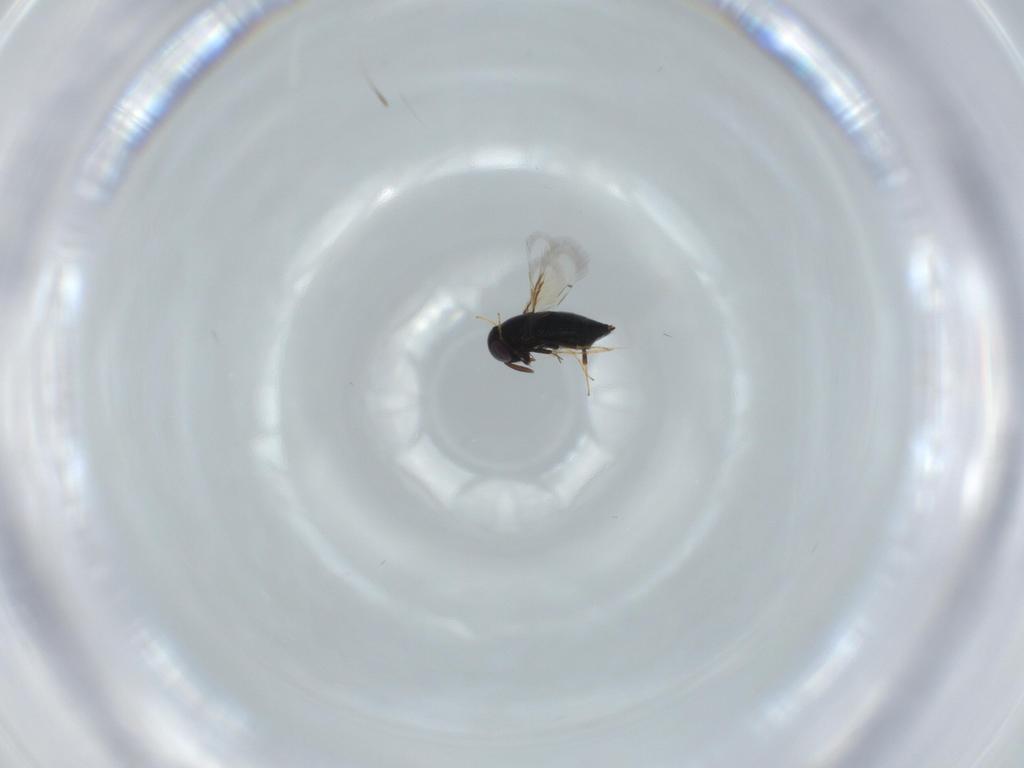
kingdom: Animalia
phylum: Arthropoda
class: Insecta
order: Hymenoptera
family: Signiphoridae
